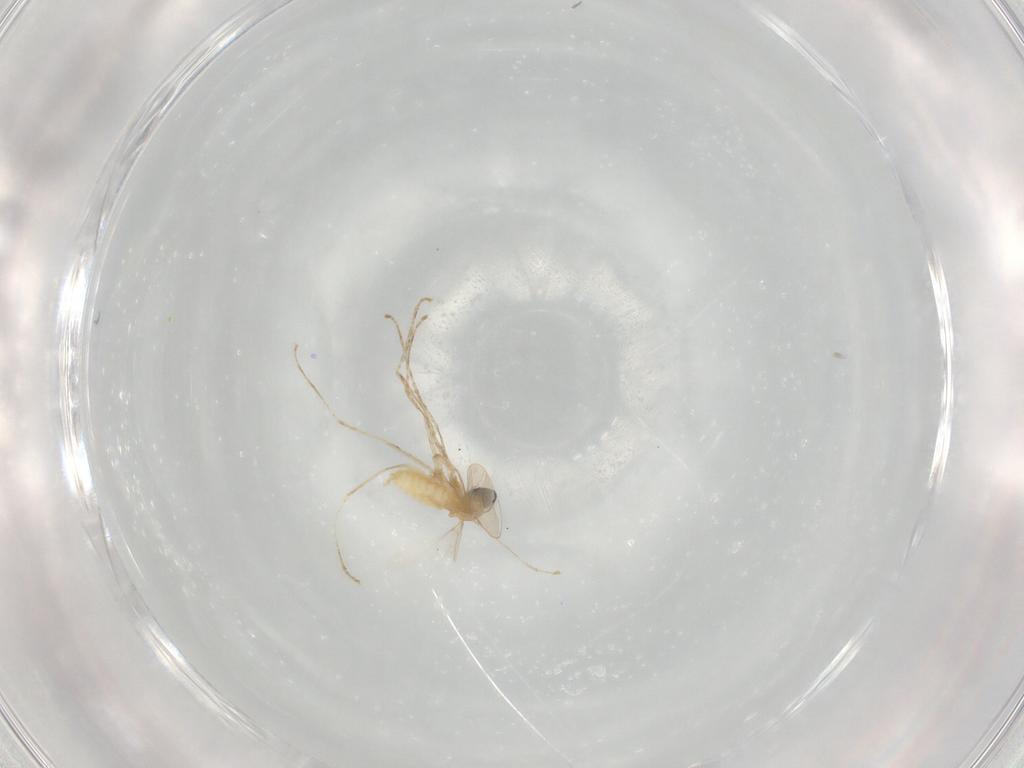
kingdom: Animalia
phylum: Arthropoda
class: Insecta
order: Diptera
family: Cecidomyiidae
